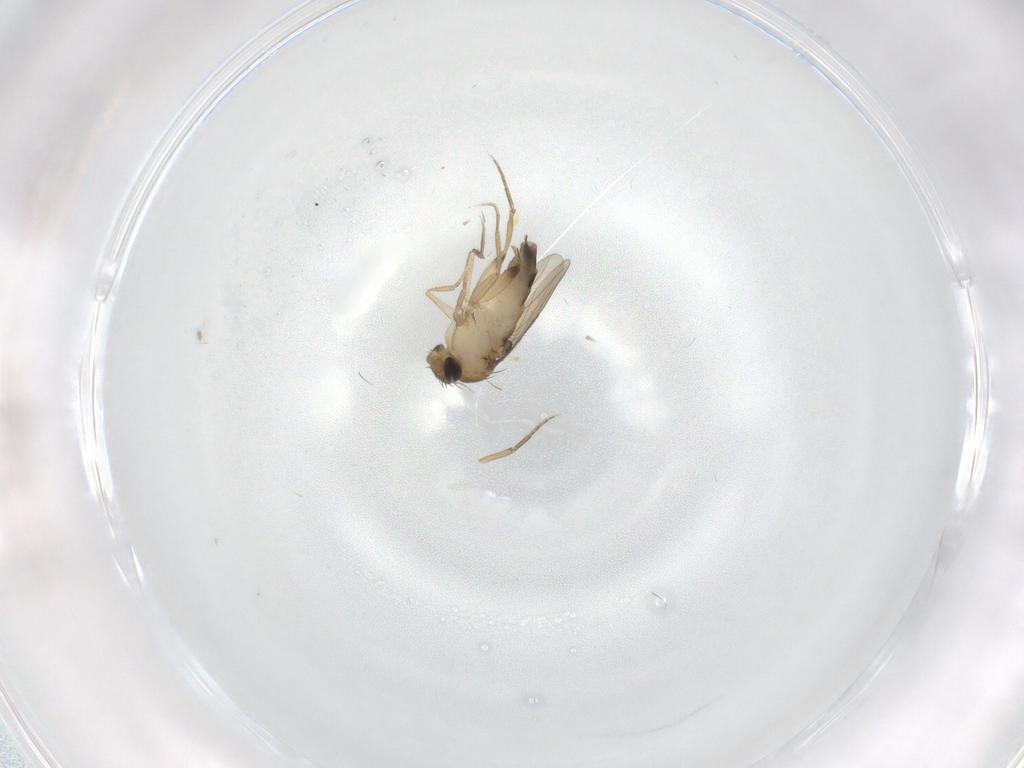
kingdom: Animalia
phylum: Arthropoda
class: Insecta
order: Diptera
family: Phoridae
